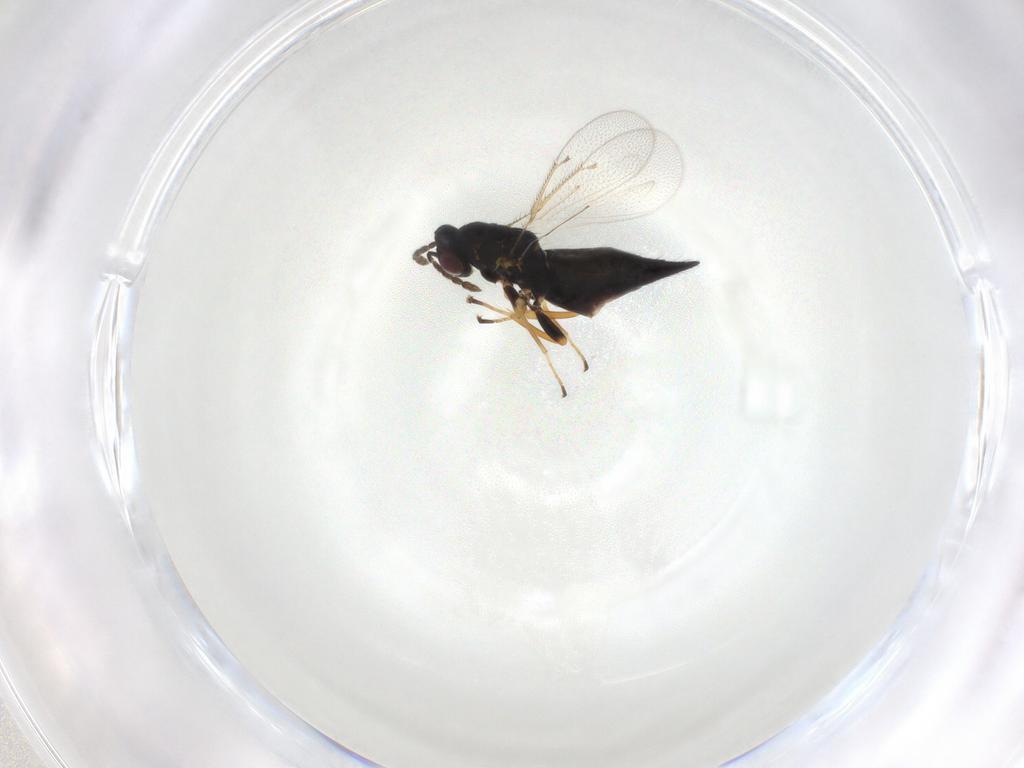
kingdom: Animalia
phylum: Arthropoda
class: Insecta
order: Hymenoptera
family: Eulophidae
